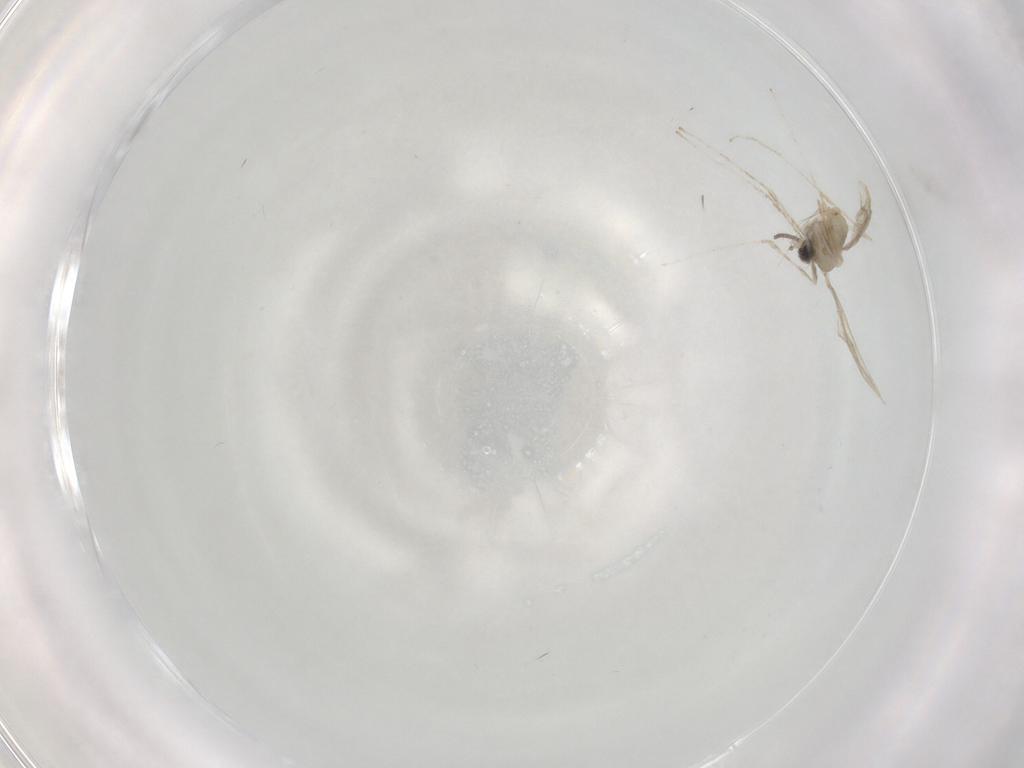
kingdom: Animalia
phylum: Arthropoda
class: Insecta
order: Diptera
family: Cecidomyiidae
